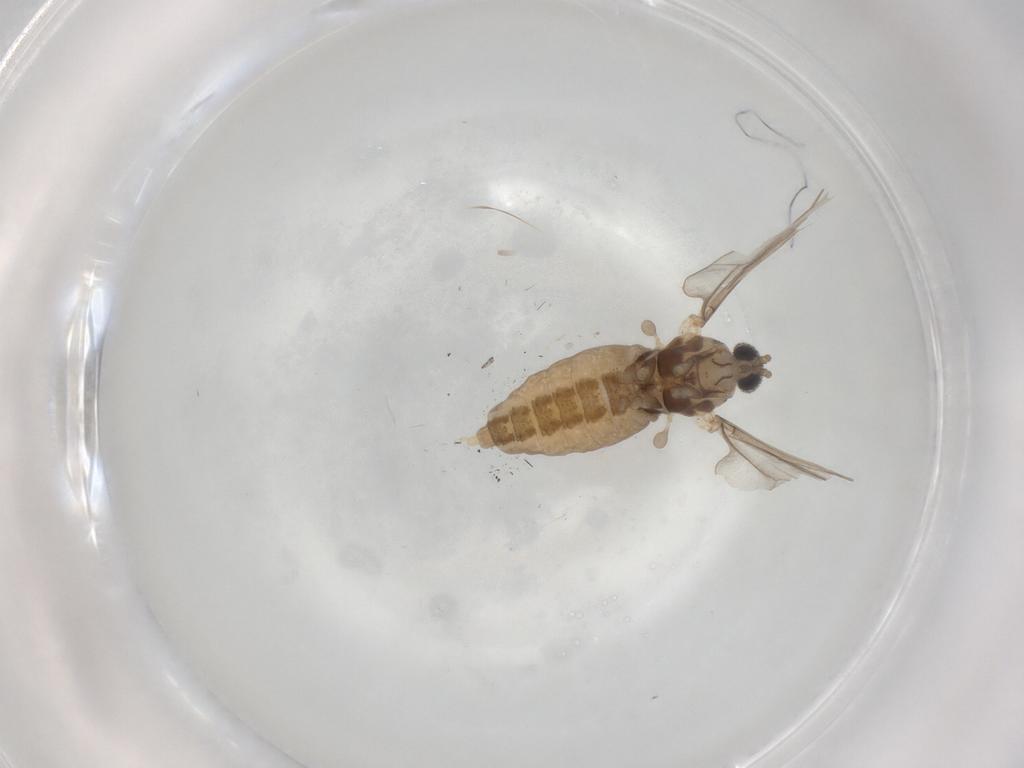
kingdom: Animalia
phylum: Arthropoda
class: Insecta
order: Diptera
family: Cecidomyiidae
